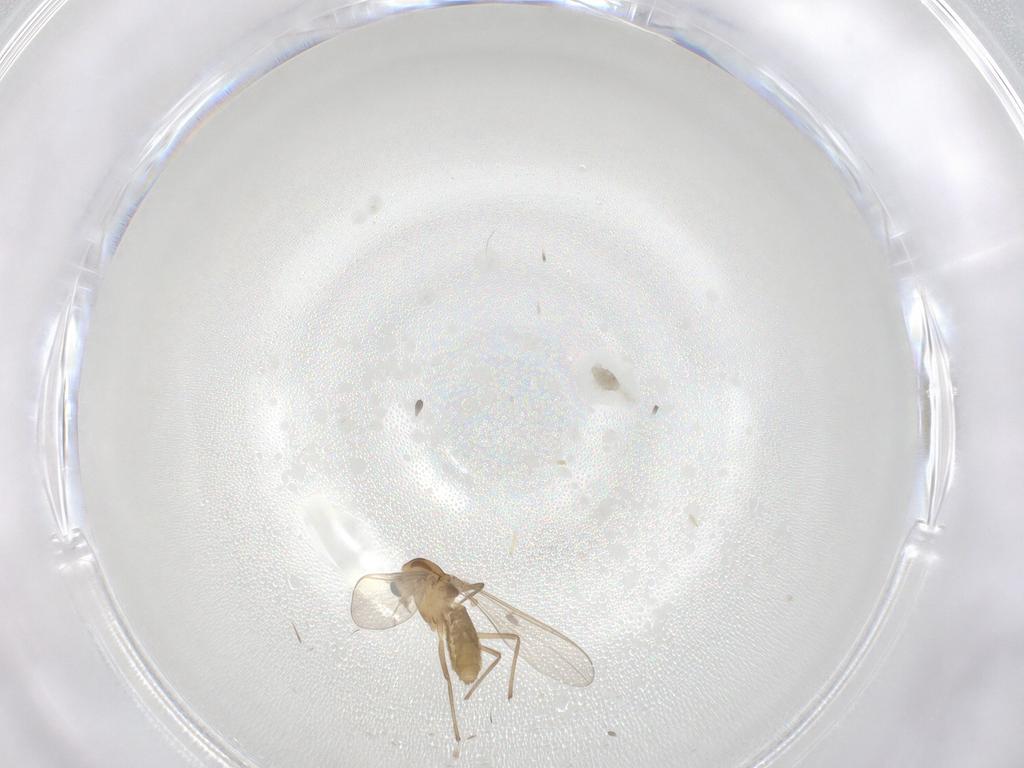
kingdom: Animalia
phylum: Arthropoda
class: Insecta
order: Diptera
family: Chironomidae
